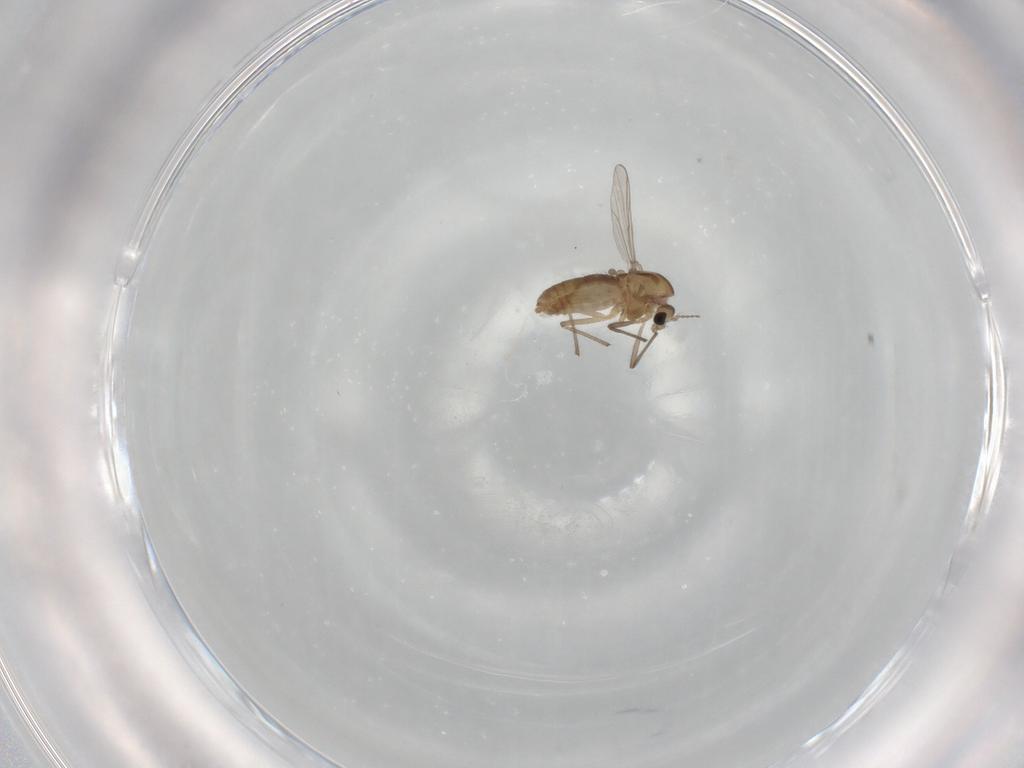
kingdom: Animalia
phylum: Arthropoda
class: Insecta
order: Diptera
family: Chironomidae
